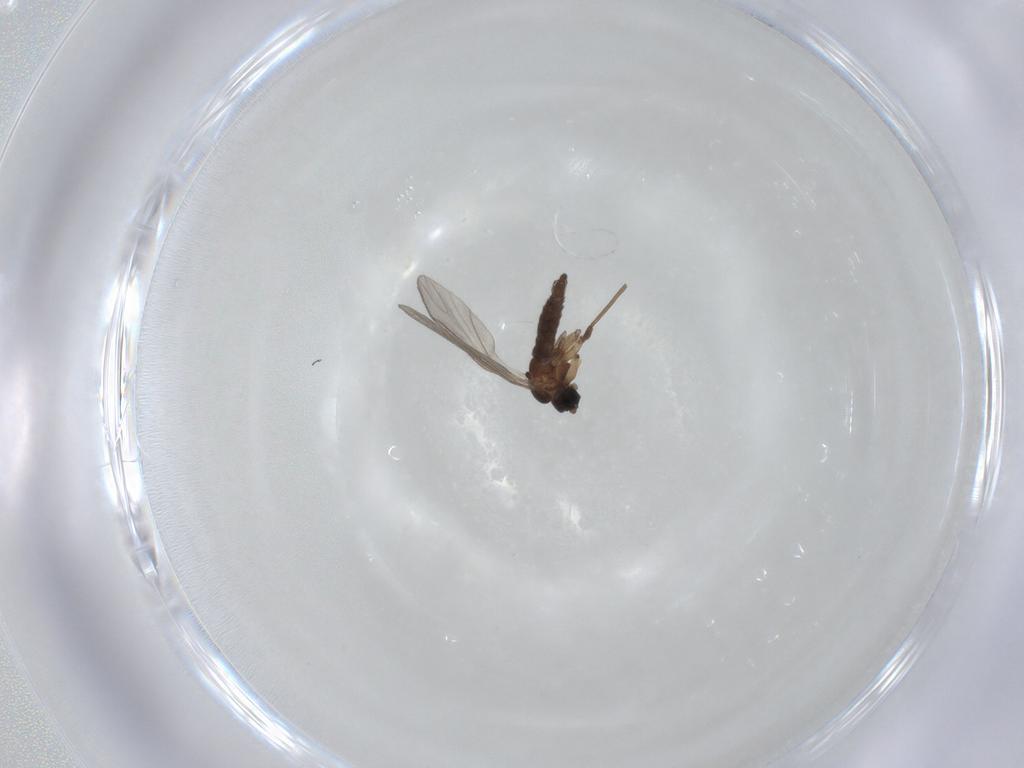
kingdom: Animalia
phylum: Arthropoda
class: Insecta
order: Diptera
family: Sciaridae
